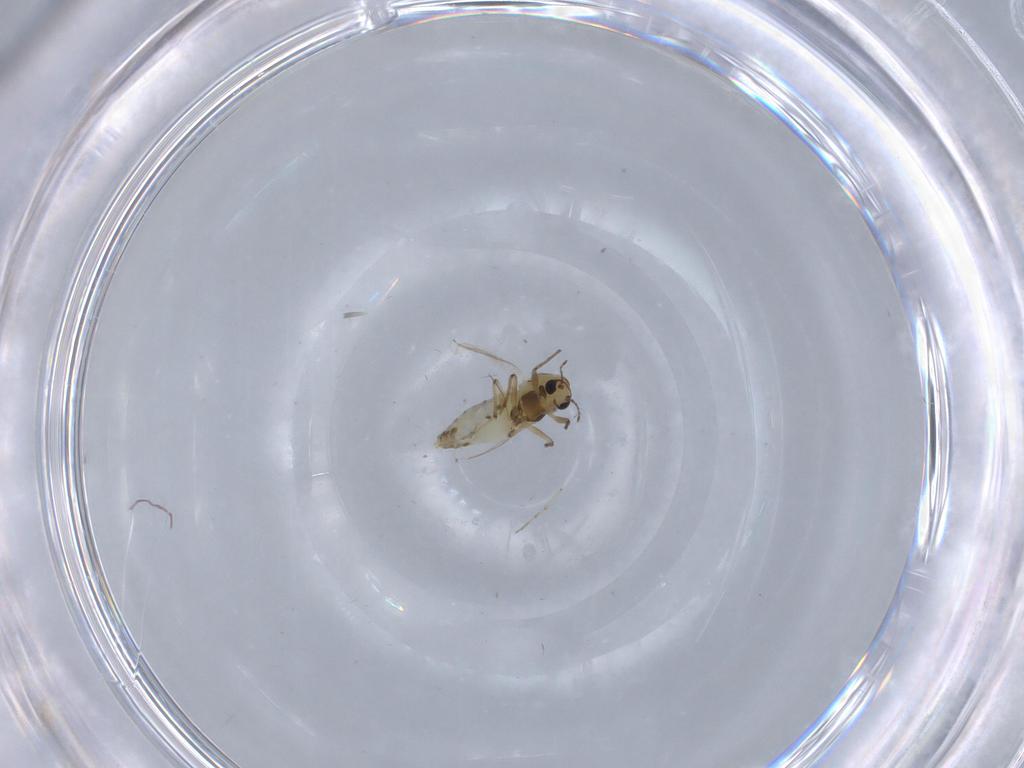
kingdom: Animalia
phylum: Arthropoda
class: Insecta
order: Diptera
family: Chironomidae
